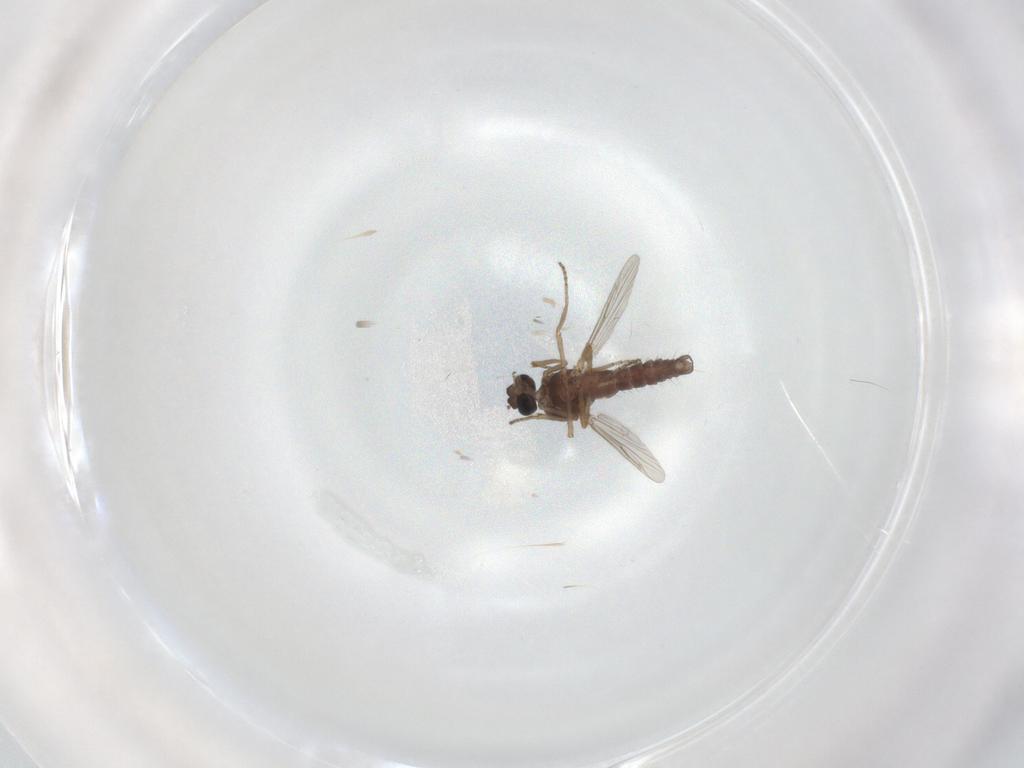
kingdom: Animalia
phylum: Arthropoda
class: Insecta
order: Diptera
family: Ceratopogonidae
